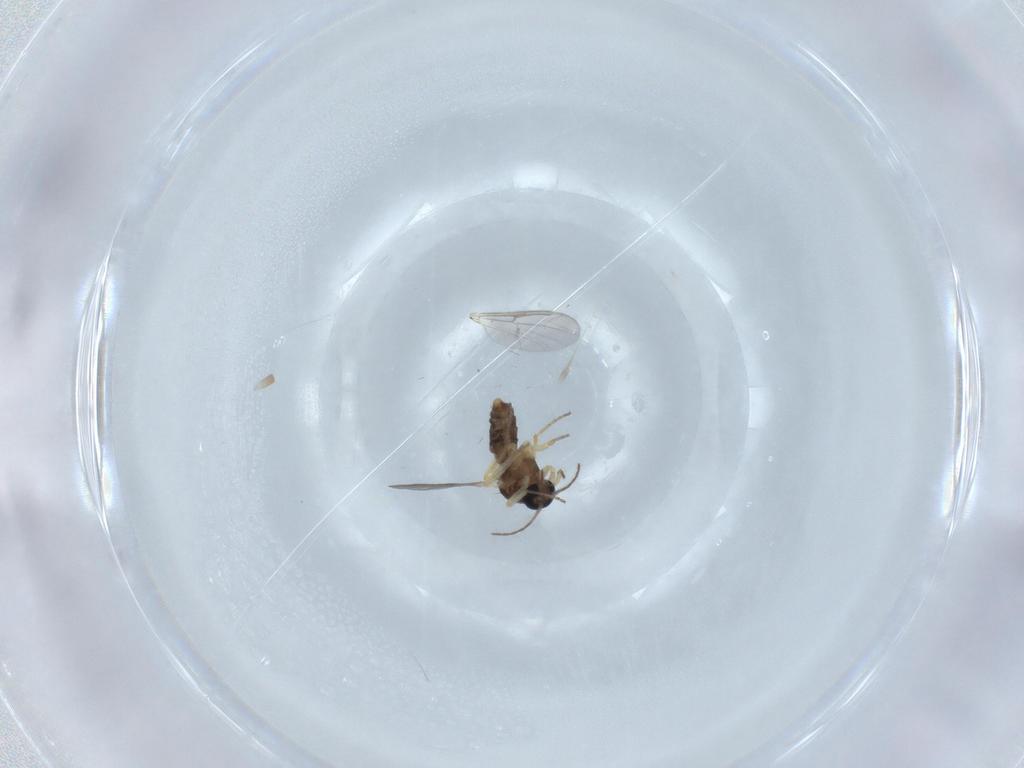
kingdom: Animalia
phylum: Arthropoda
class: Insecta
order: Diptera
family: Ceratopogonidae
